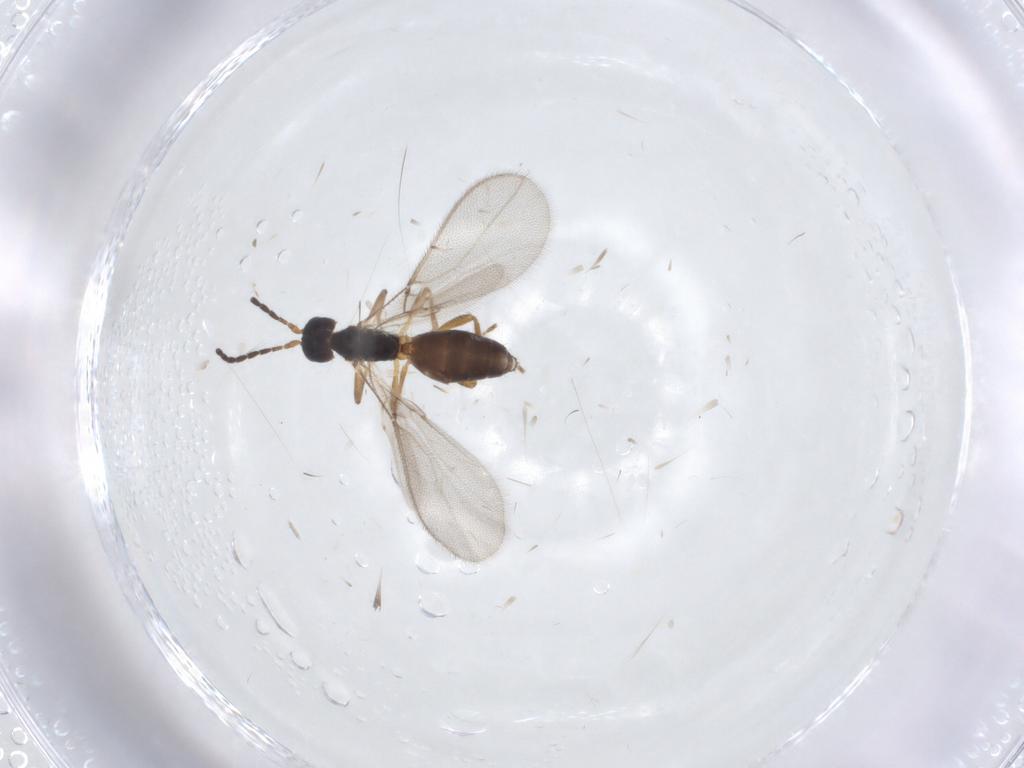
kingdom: Animalia
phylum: Arthropoda
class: Insecta
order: Hymenoptera
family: Braconidae
